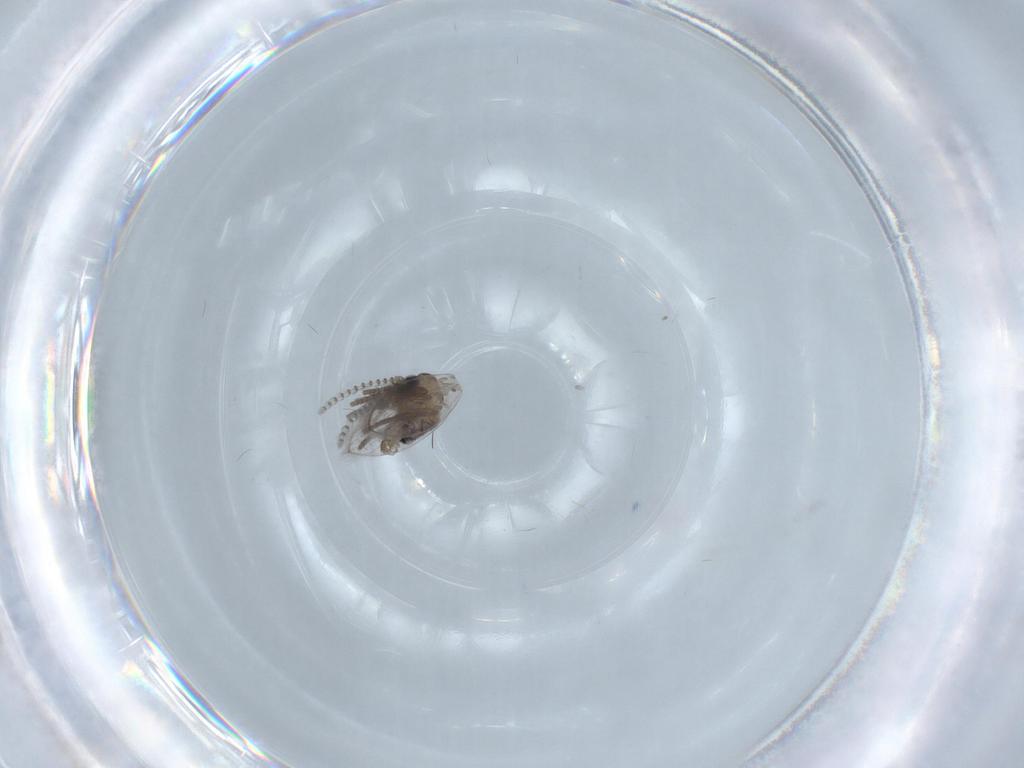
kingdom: Animalia
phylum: Arthropoda
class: Insecta
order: Diptera
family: Psychodidae
